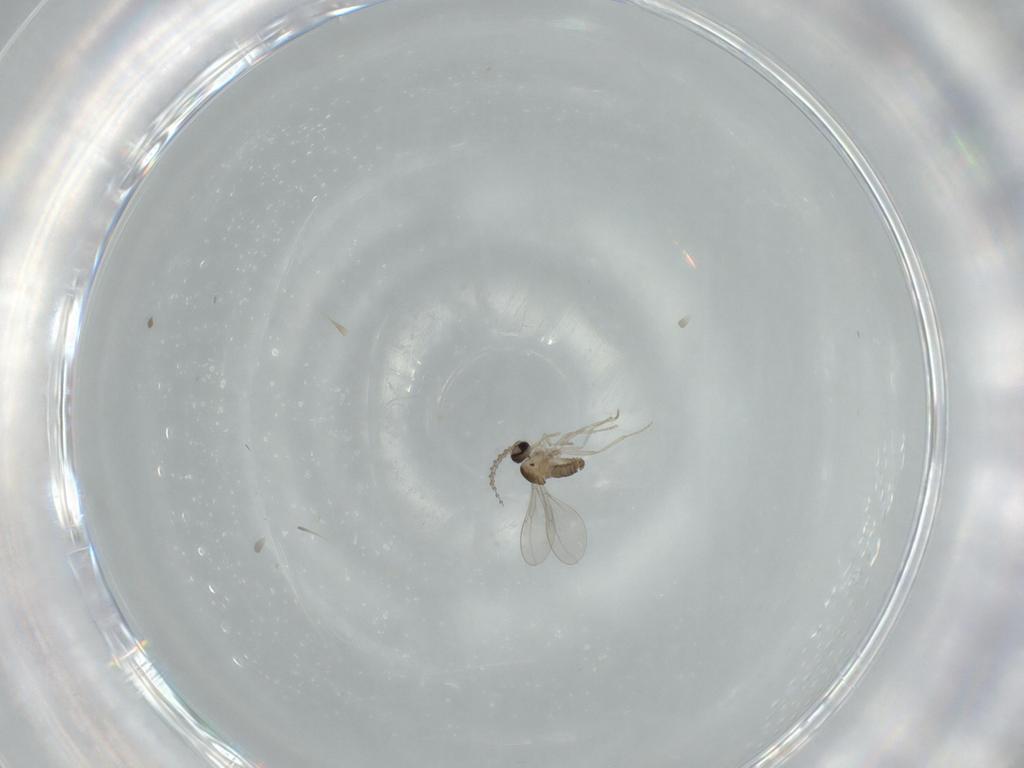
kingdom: Animalia
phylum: Arthropoda
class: Insecta
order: Diptera
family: Cecidomyiidae
